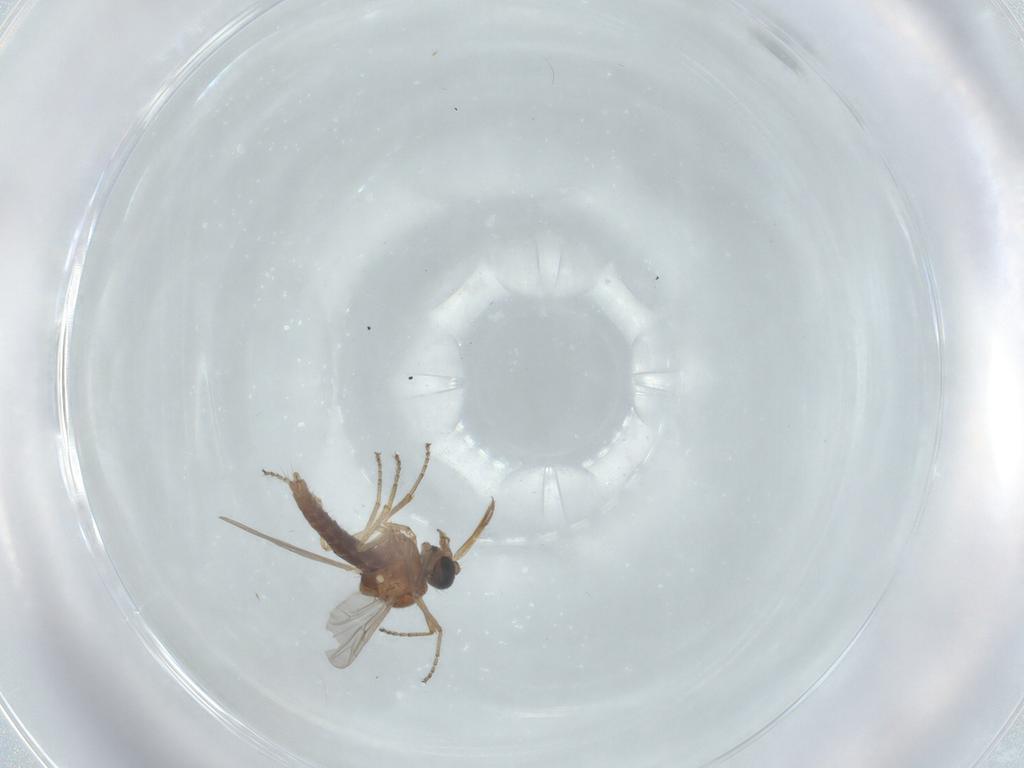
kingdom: Animalia
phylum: Arthropoda
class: Insecta
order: Diptera
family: Ceratopogonidae
